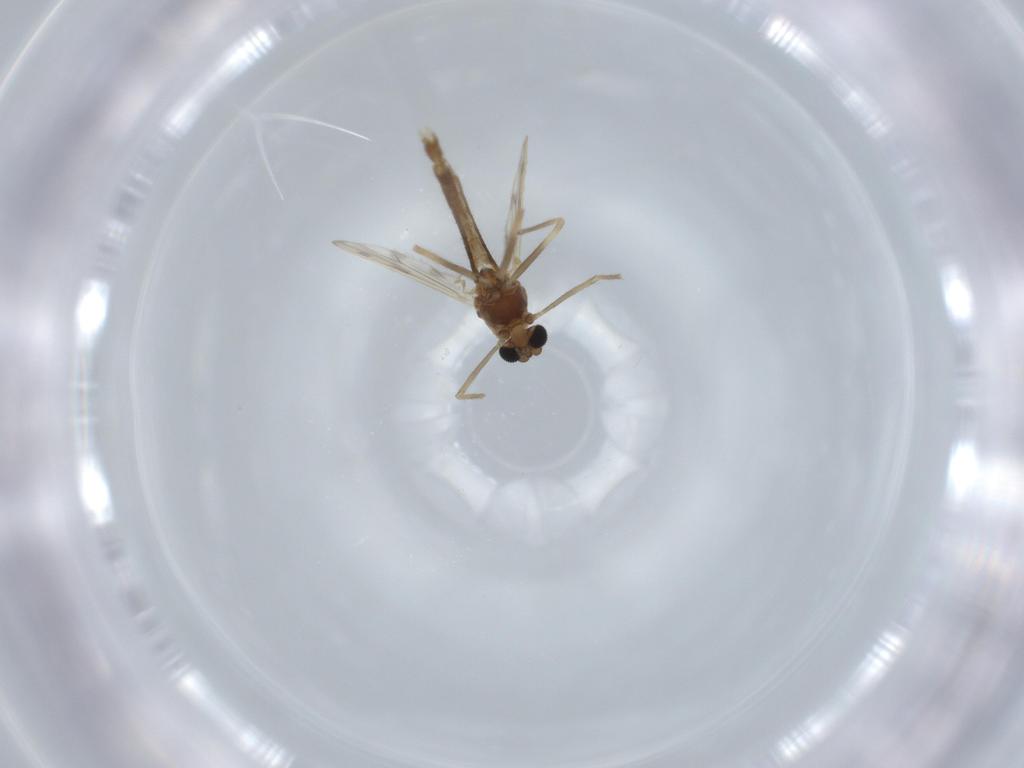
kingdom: Animalia
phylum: Arthropoda
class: Insecta
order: Diptera
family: Chironomidae
